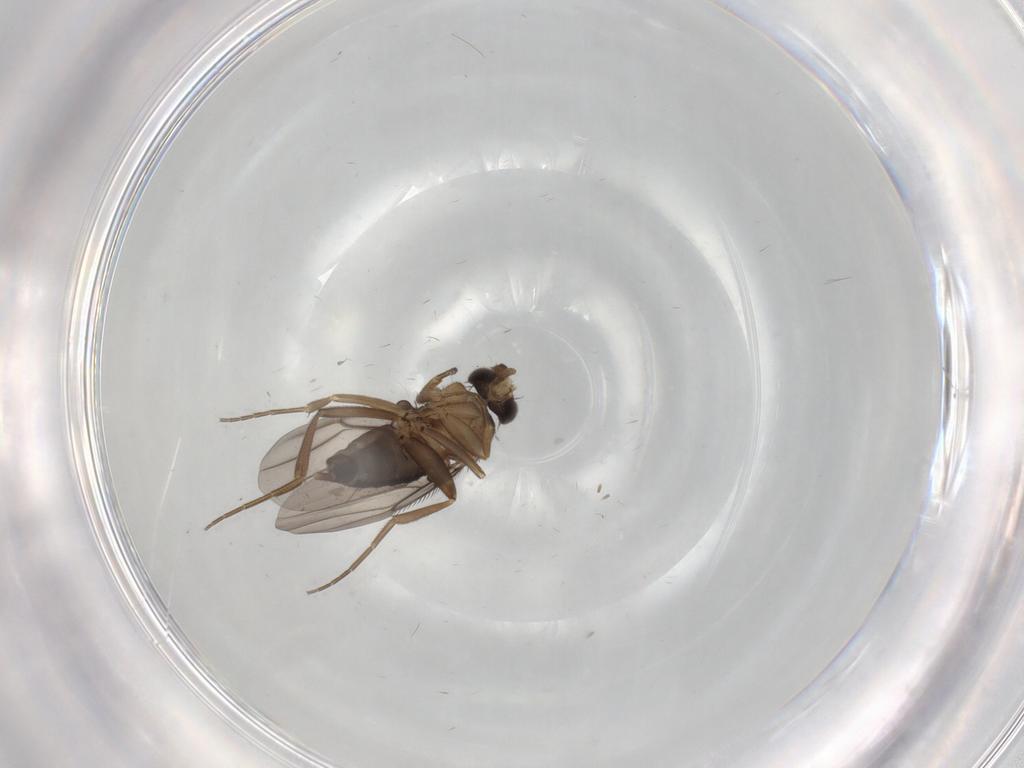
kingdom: Animalia
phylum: Arthropoda
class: Insecta
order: Diptera
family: Phoridae
